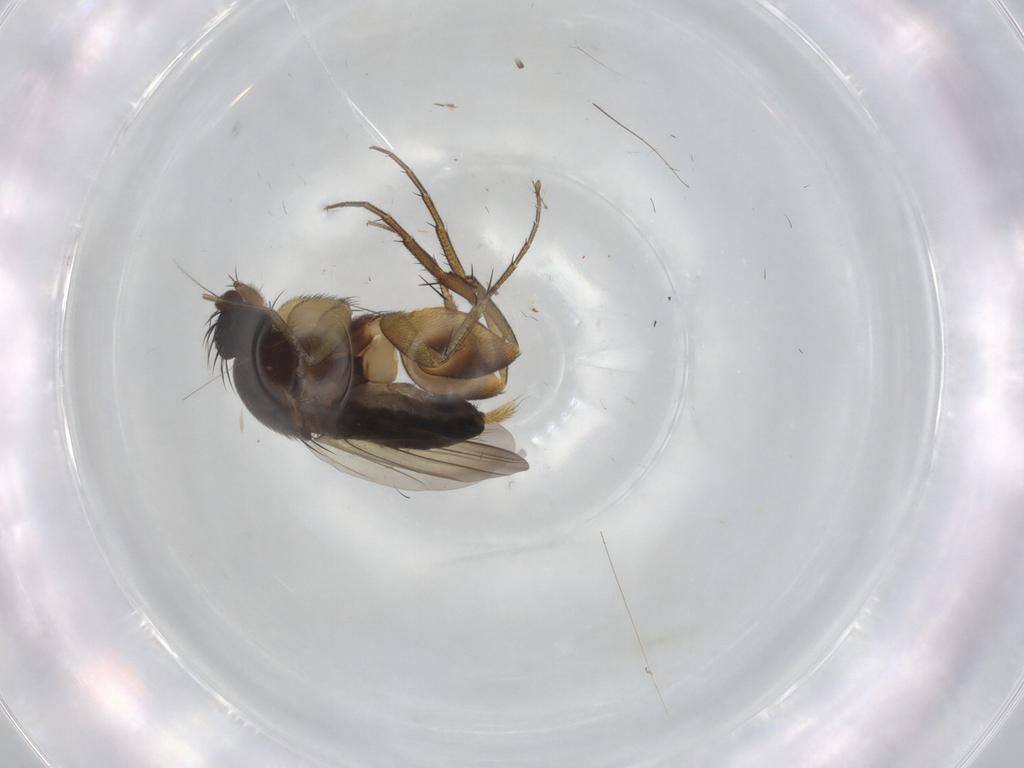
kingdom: Animalia
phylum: Arthropoda
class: Insecta
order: Diptera
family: Phoridae
